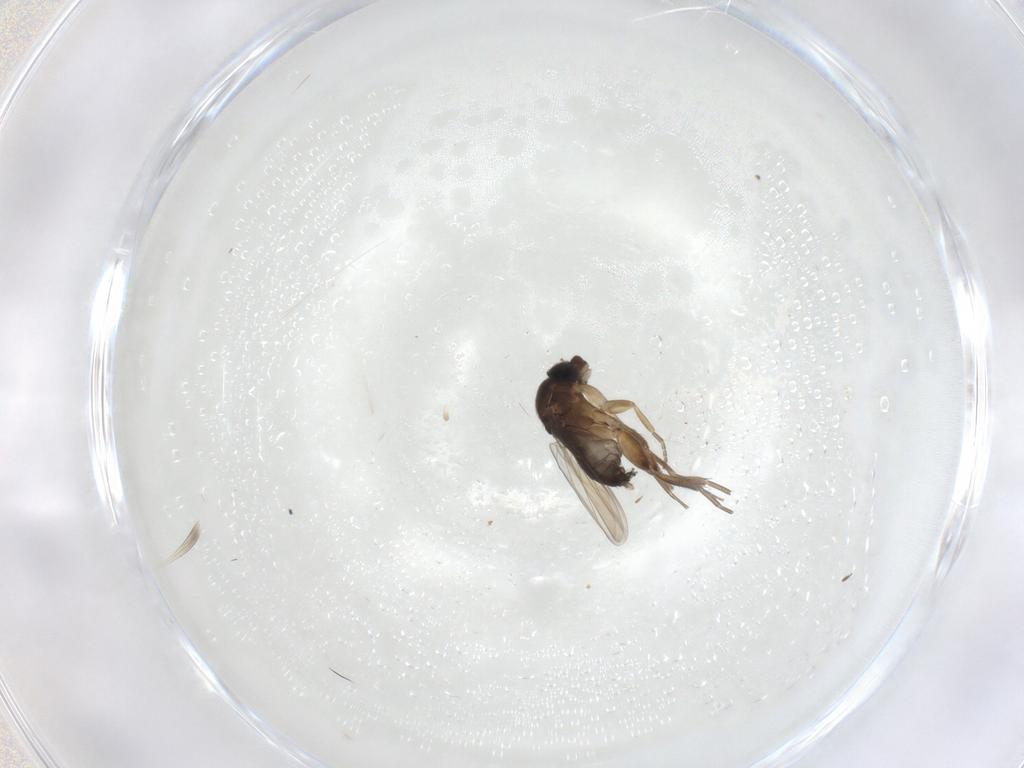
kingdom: Animalia
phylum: Arthropoda
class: Insecta
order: Diptera
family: Phoridae
